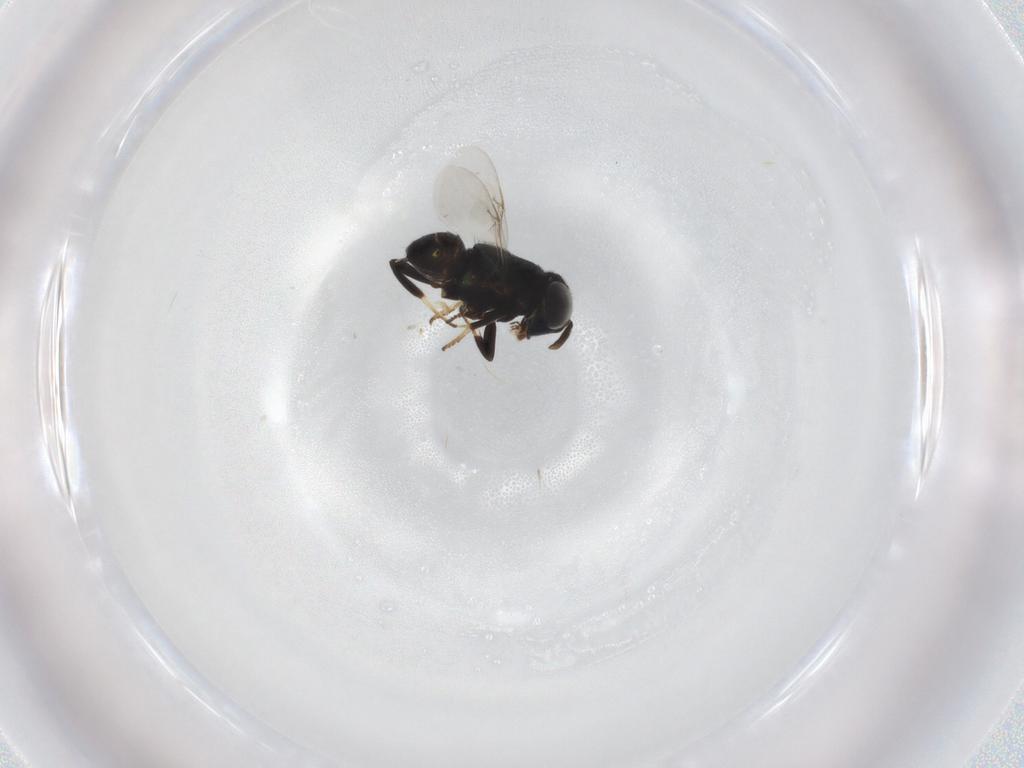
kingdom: Animalia
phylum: Arthropoda
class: Insecta
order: Hymenoptera
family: Encyrtidae
